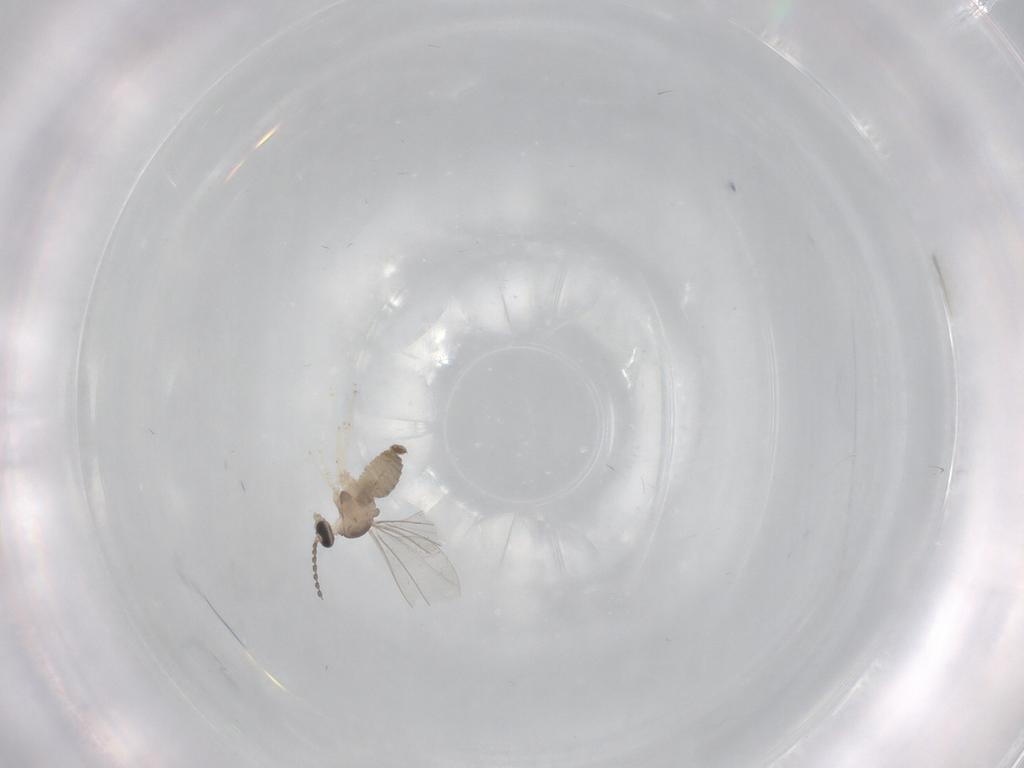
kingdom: Animalia
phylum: Arthropoda
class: Insecta
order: Diptera
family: Cecidomyiidae
